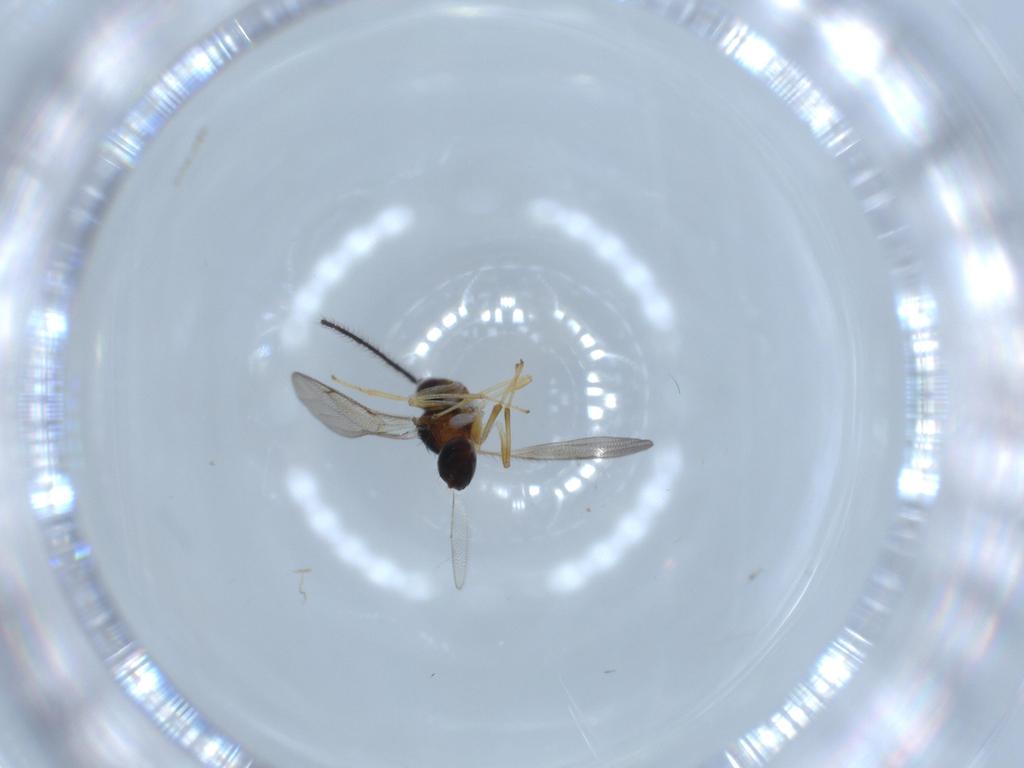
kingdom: Animalia
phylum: Arthropoda
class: Insecta
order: Hymenoptera
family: Diparidae
